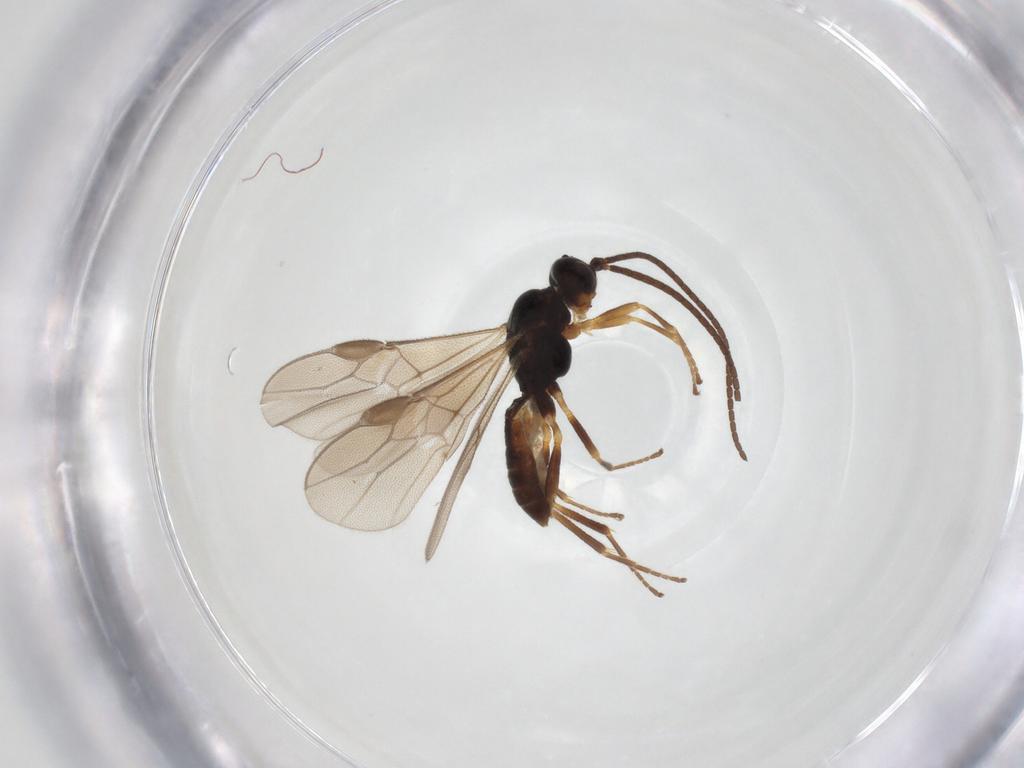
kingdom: Animalia
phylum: Arthropoda
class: Insecta
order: Hymenoptera
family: Braconidae
